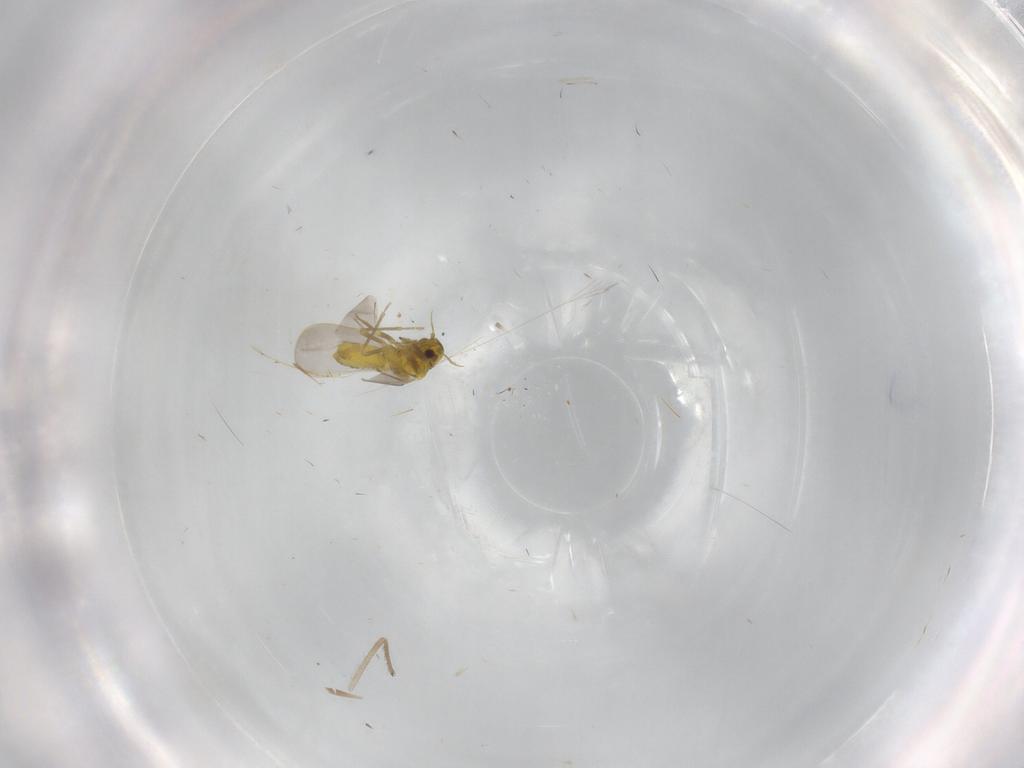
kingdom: Animalia
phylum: Arthropoda
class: Insecta
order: Hemiptera
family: Aleyrodidae
